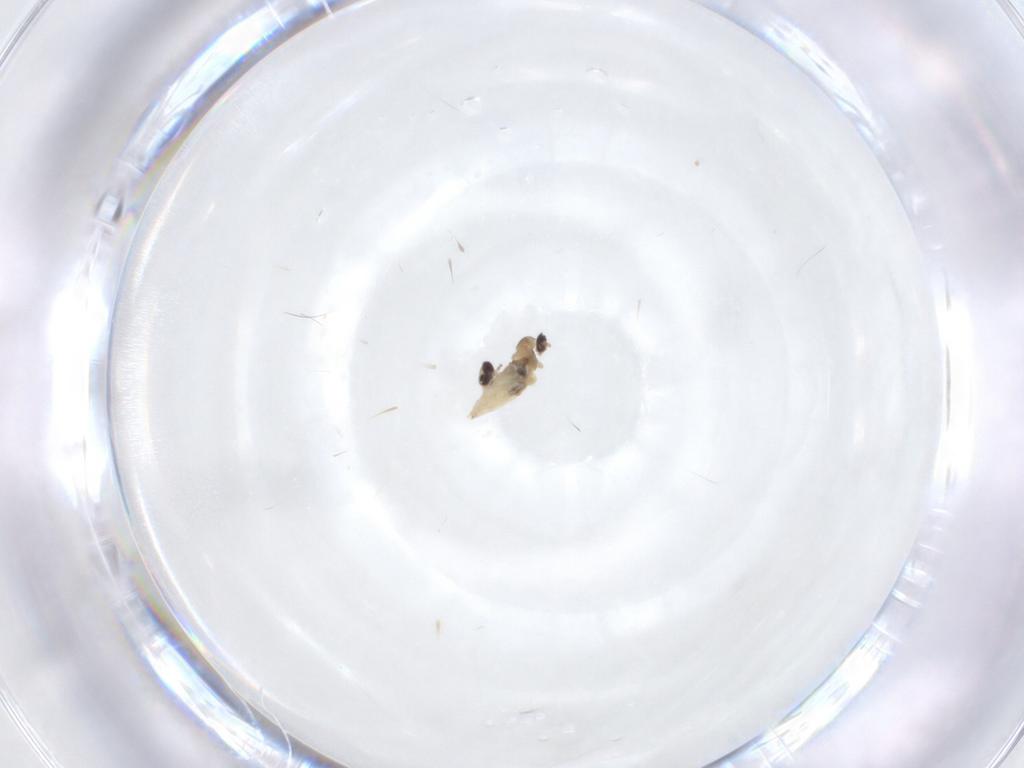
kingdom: Animalia
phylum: Arthropoda
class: Insecta
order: Diptera
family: Cecidomyiidae
